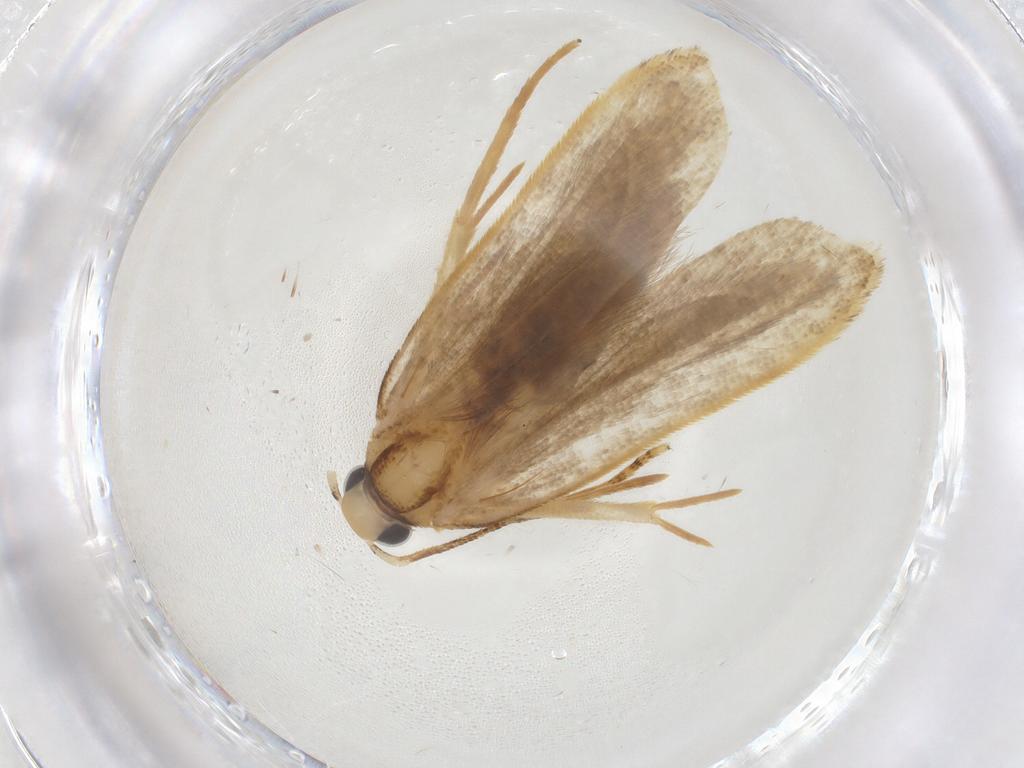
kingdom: Animalia
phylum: Arthropoda
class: Insecta
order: Lepidoptera
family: Gelechiidae
